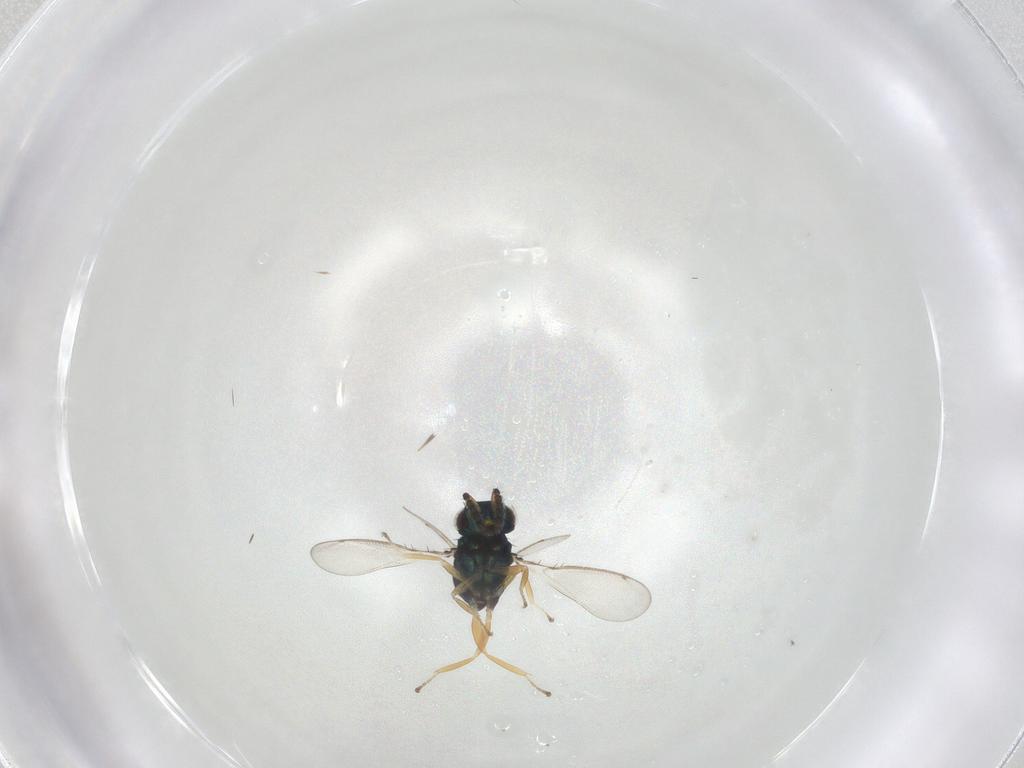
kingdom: Animalia
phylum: Arthropoda
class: Insecta
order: Hymenoptera
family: Eulophidae
